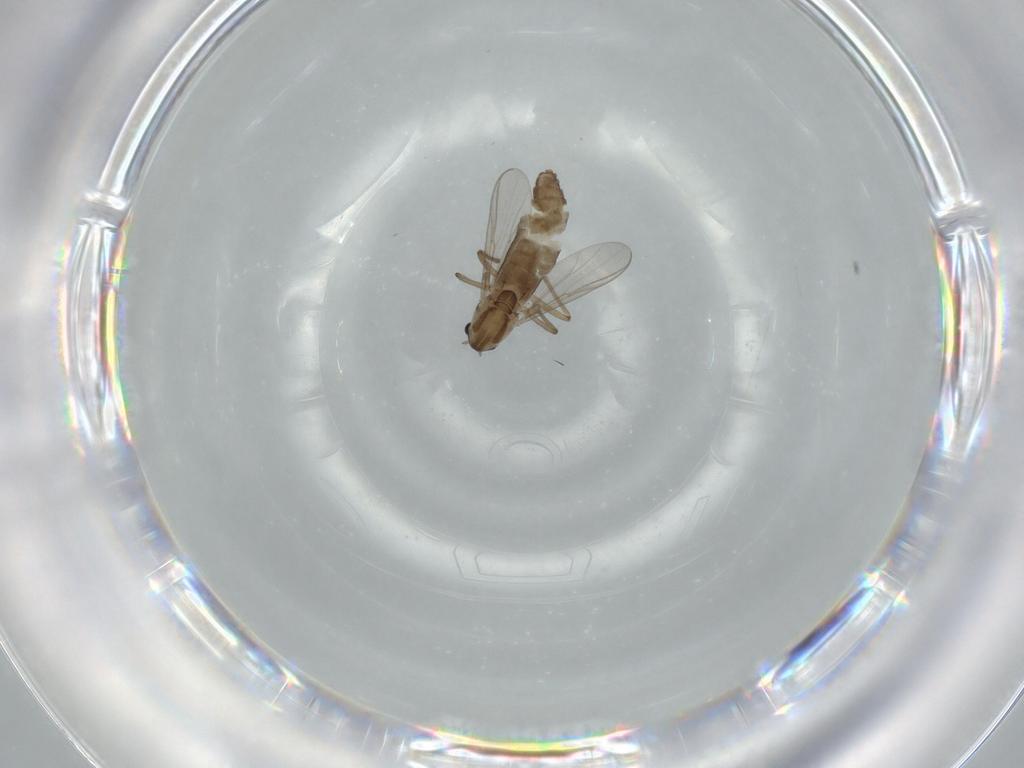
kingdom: Animalia
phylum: Arthropoda
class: Insecta
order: Diptera
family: Chironomidae
